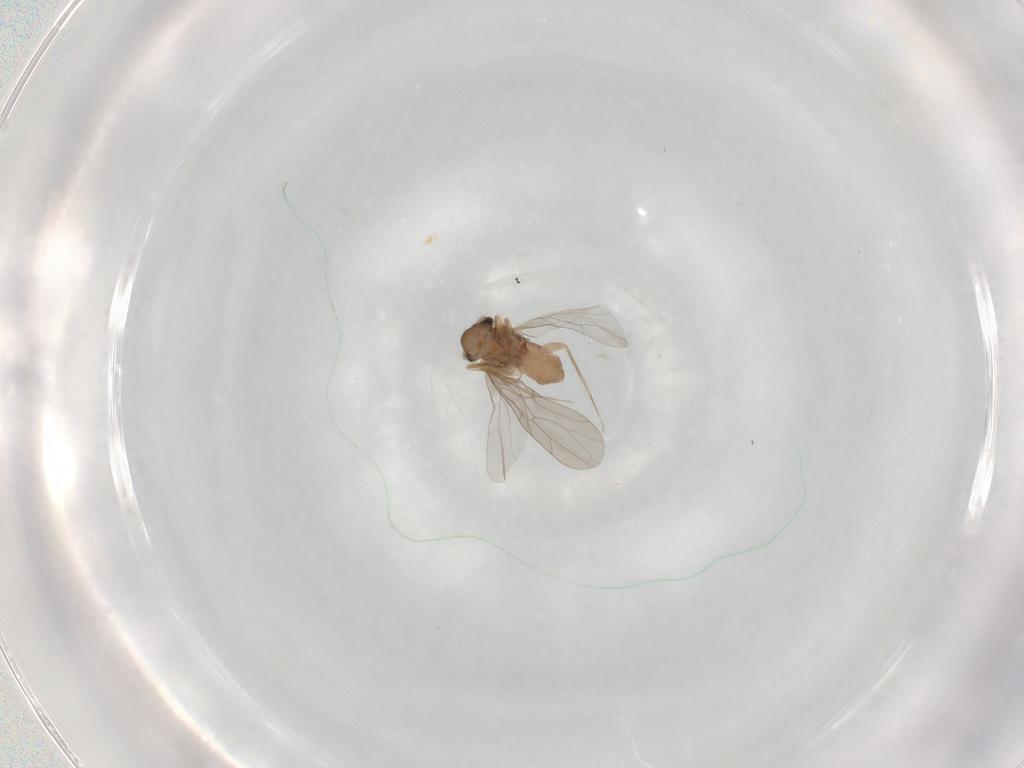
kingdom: Animalia
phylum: Arthropoda
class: Insecta
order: Psocodea
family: Lepidopsocidae
